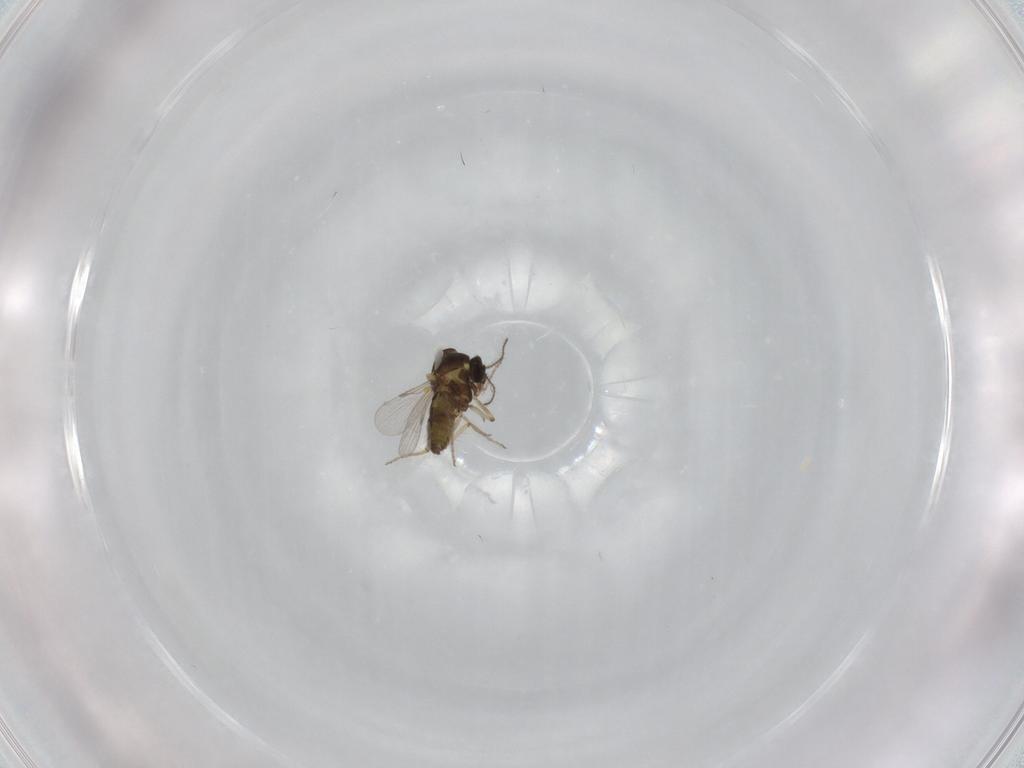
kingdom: Animalia
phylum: Arthropoda
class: Insecta
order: Diptera
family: Ceratopogonidae
